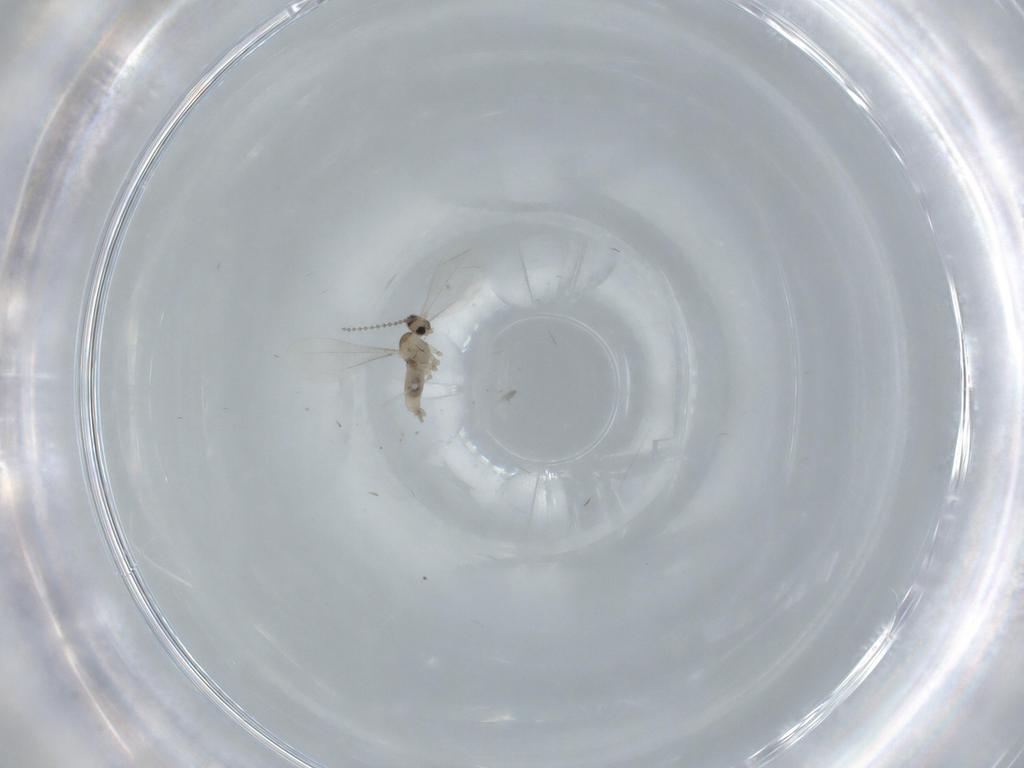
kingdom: Animalia
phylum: Arthropoda
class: Insecta
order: Diptera
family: Cecidomyiidae
